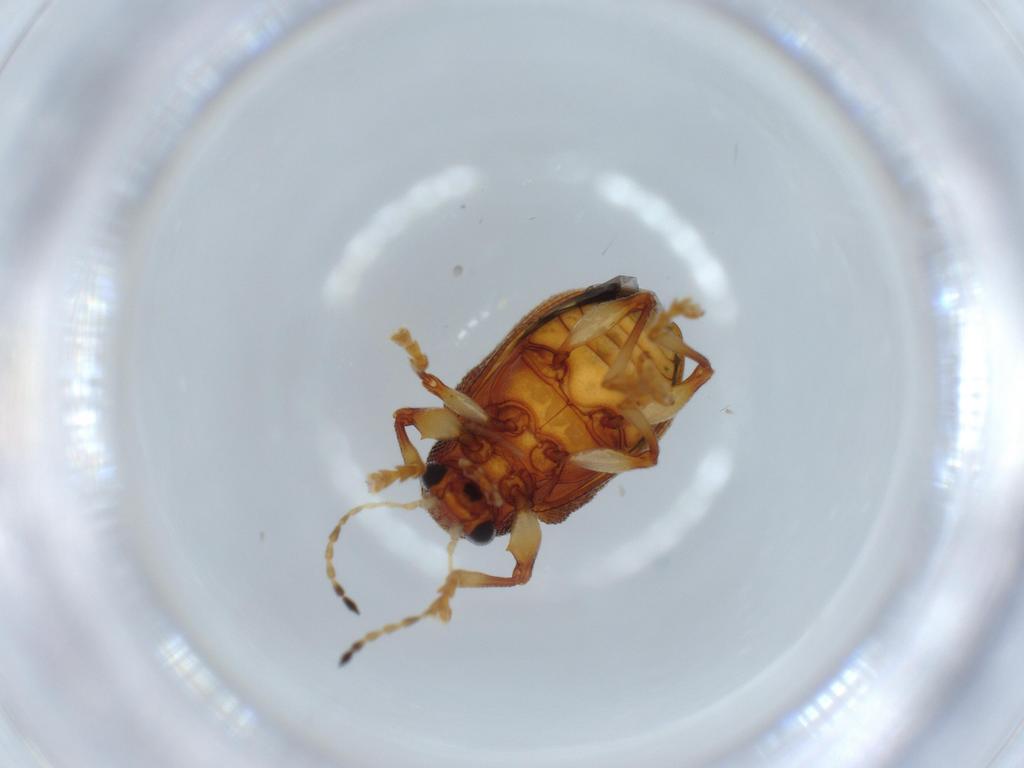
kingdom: Animalia
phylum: Arthropoda
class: Insecta
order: Coleoptera
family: Chrysomelidae
